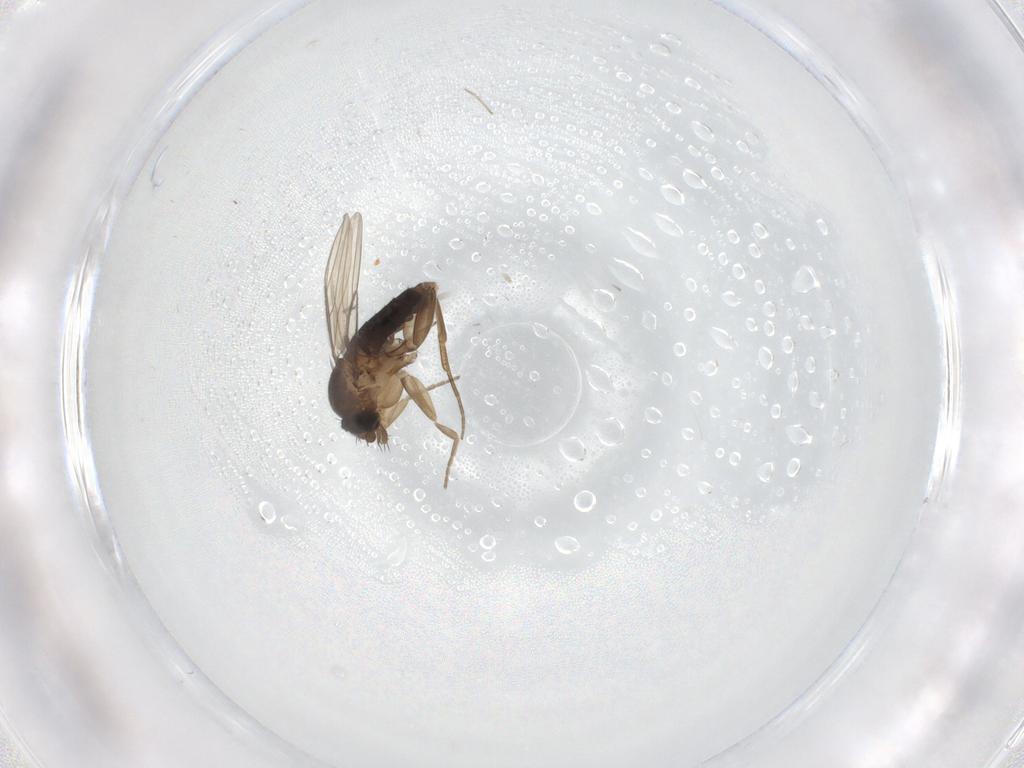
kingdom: Animalia
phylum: Arthropoda
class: Insecta
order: Diptera
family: Phoridae
